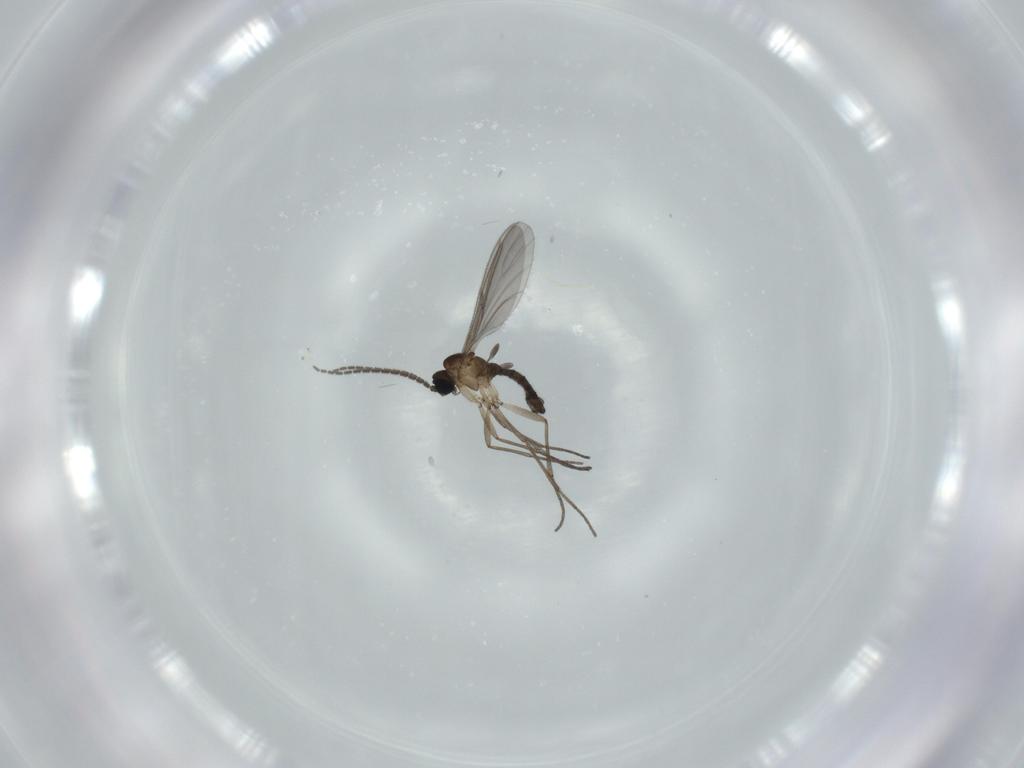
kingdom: Animalia
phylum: Arthropoda
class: Insecta
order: Diptera
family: Sciaridae
